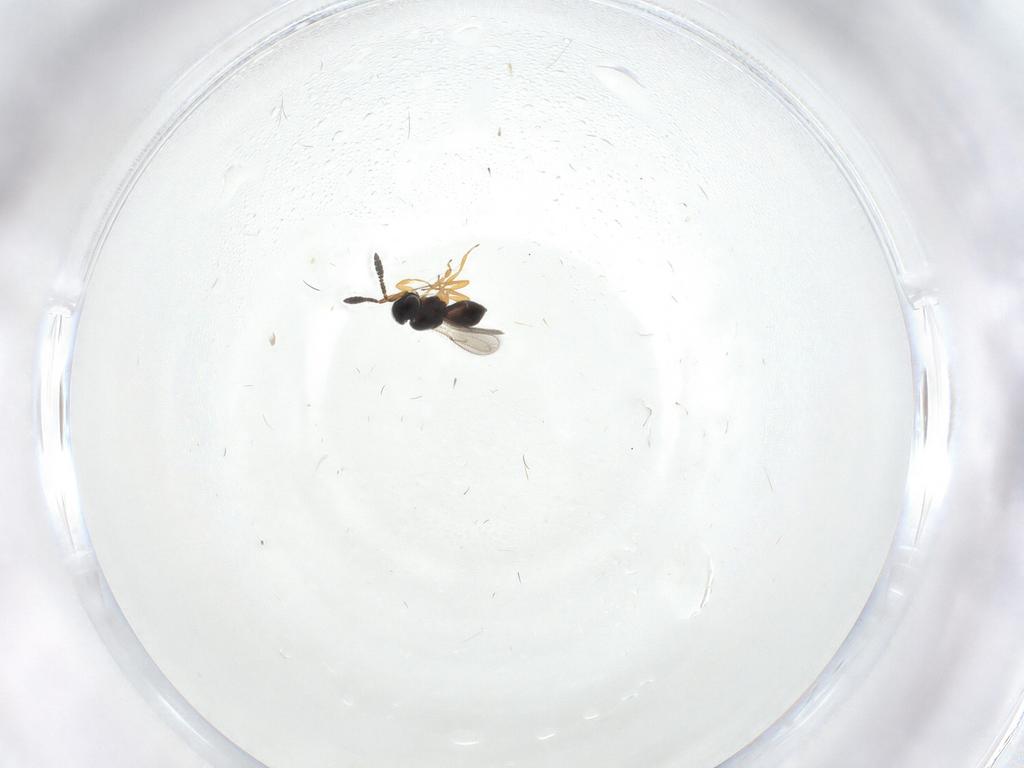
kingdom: Animalia
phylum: Arthropoda
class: Insecta
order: Hymenoptera
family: Scelionidae
